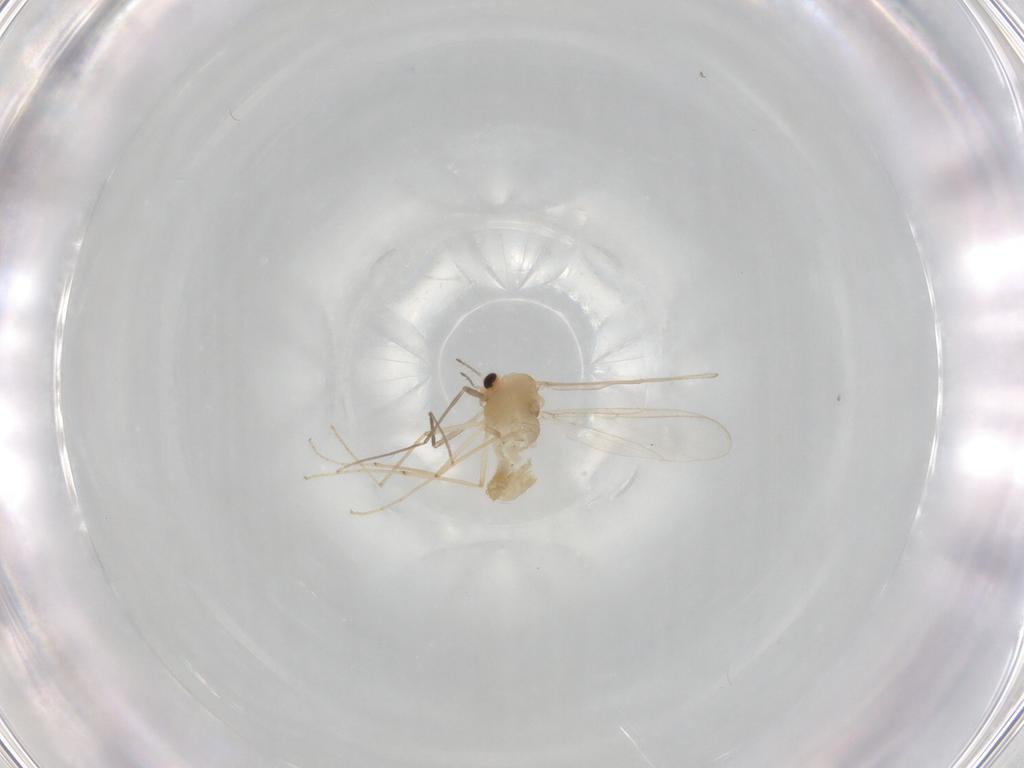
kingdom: Animalia
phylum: Arthropoda
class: Insecta
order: Diptera
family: Chironomidae
